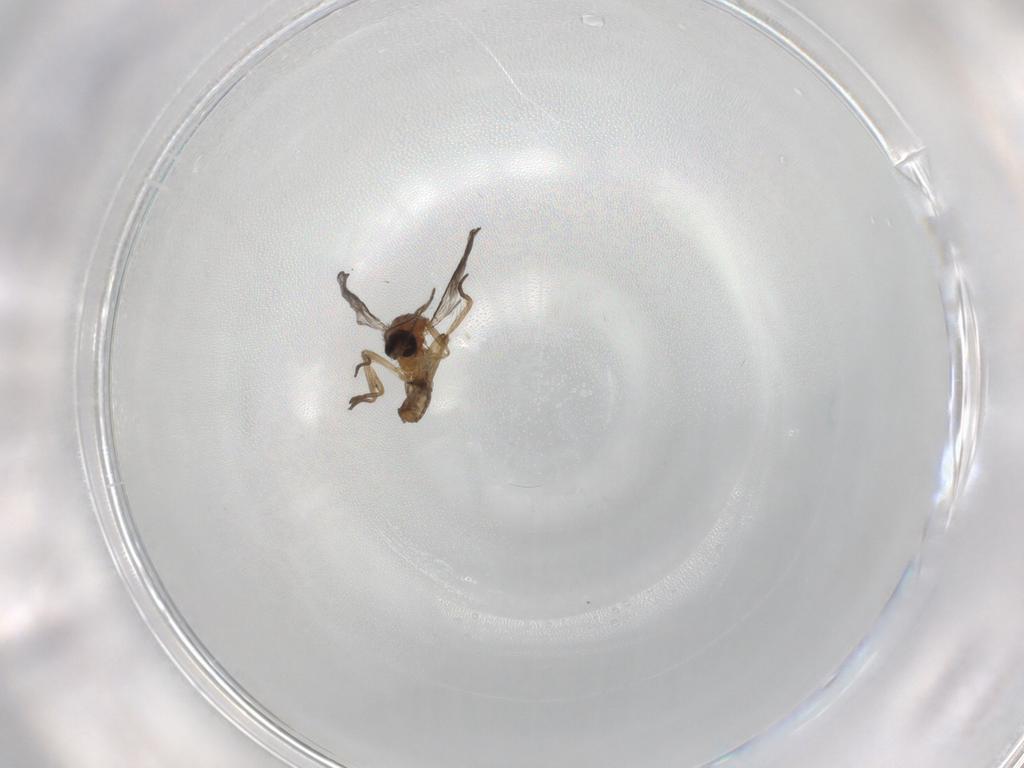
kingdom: Animalia
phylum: Arthropoda
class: Insecta
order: Diptera
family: Ceratopogonidae
